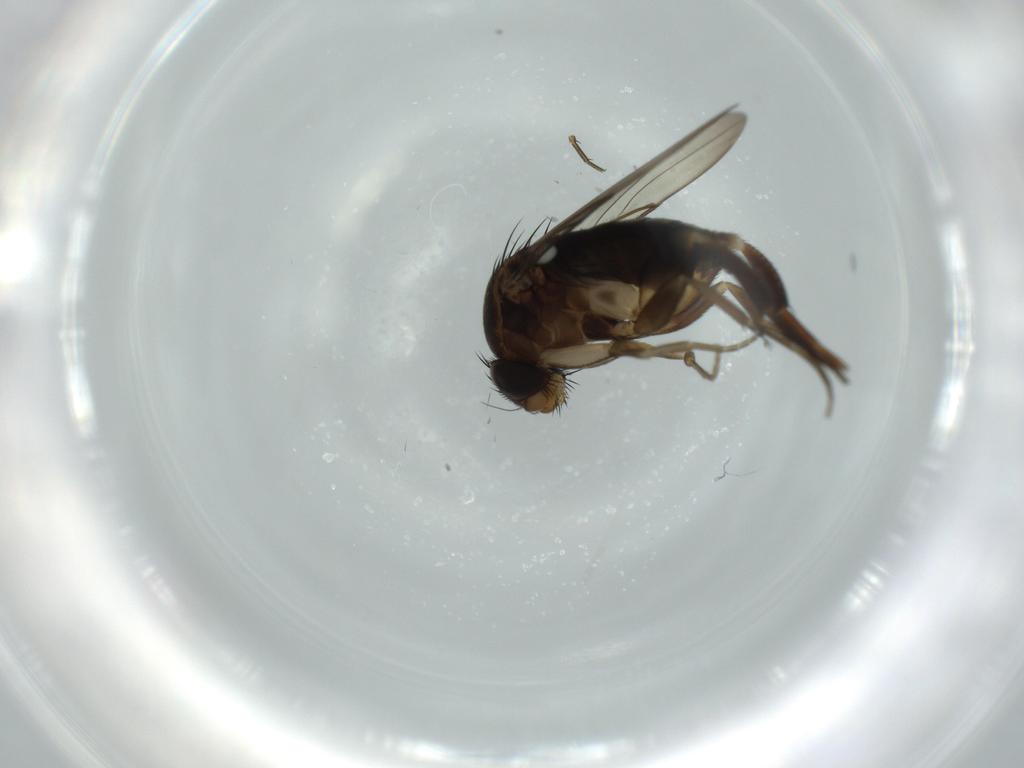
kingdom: Animalia
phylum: Arthropoda
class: Insecta
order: Diptera
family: Phoridae
